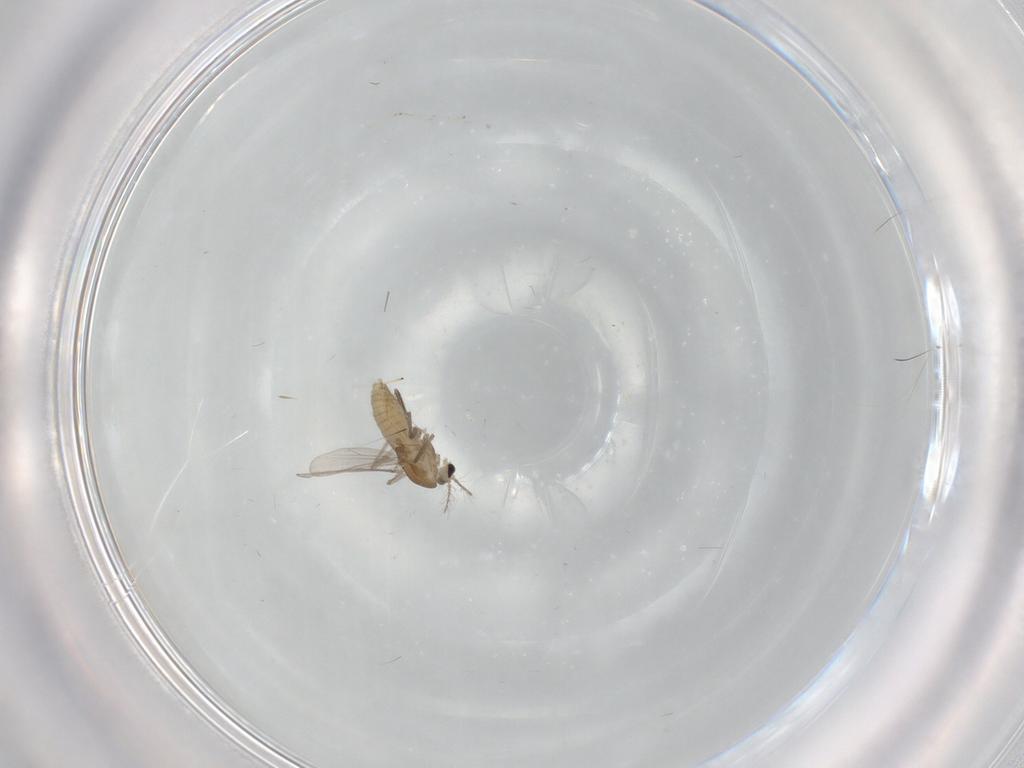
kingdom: Animalia
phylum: Arthropoda
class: Insecta
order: Diptera
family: Chironomidae
